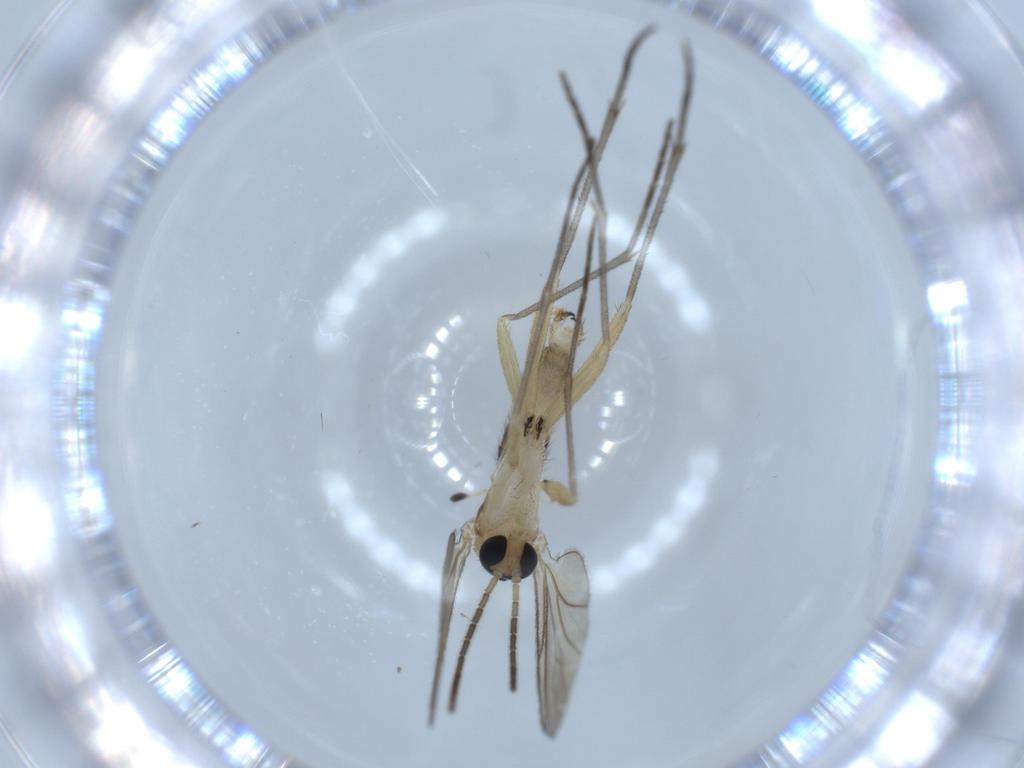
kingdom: Animalia
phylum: Arthropoda
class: Insecta
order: Diptera
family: Sciaridae
